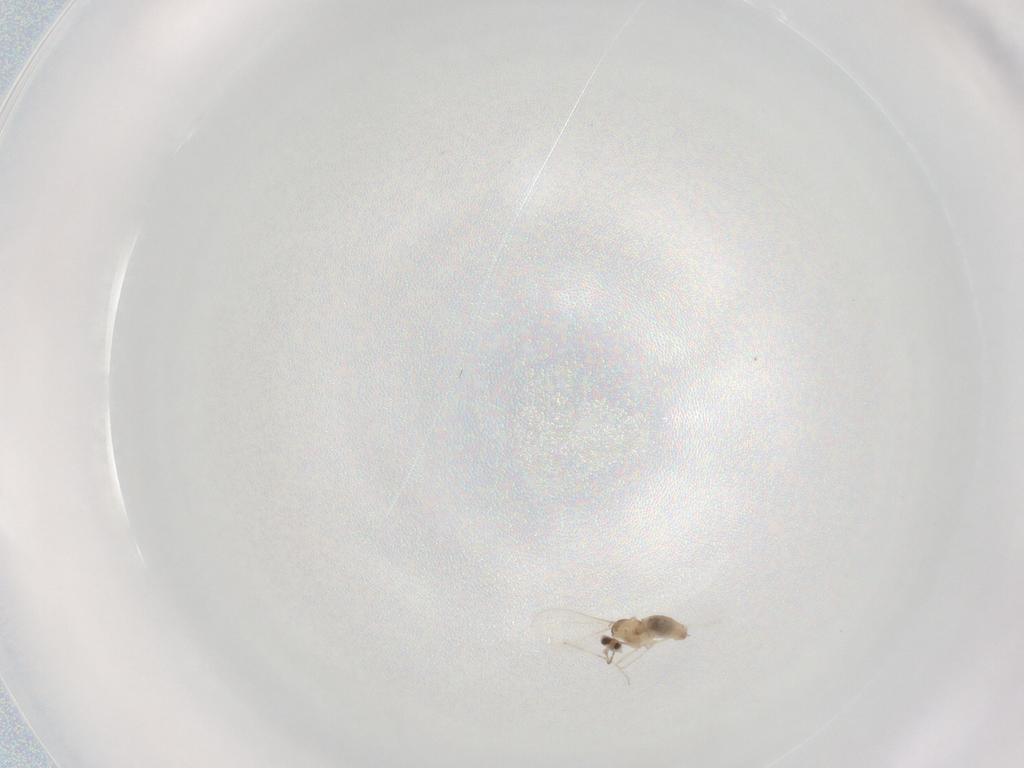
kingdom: Animalia
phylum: Arthropoda
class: Insecta
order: Diptera
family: Cecidomyiidae
